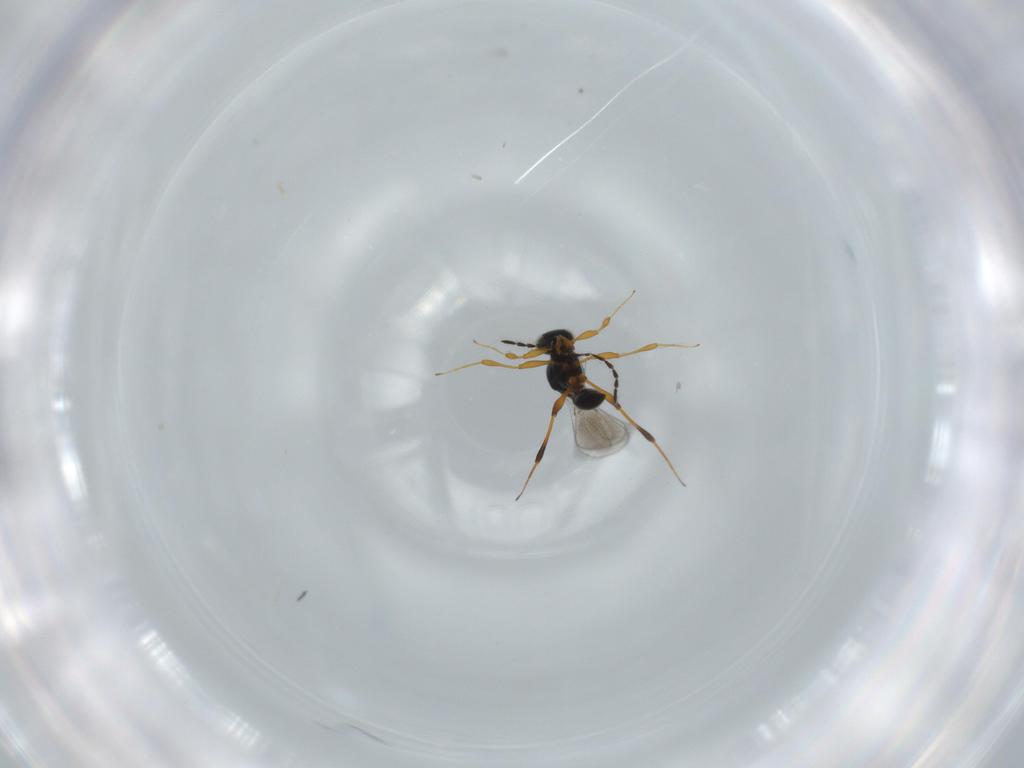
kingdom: Animalia
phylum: Arthropoda
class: Insecta
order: Hymenoptera
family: Platygastridae
